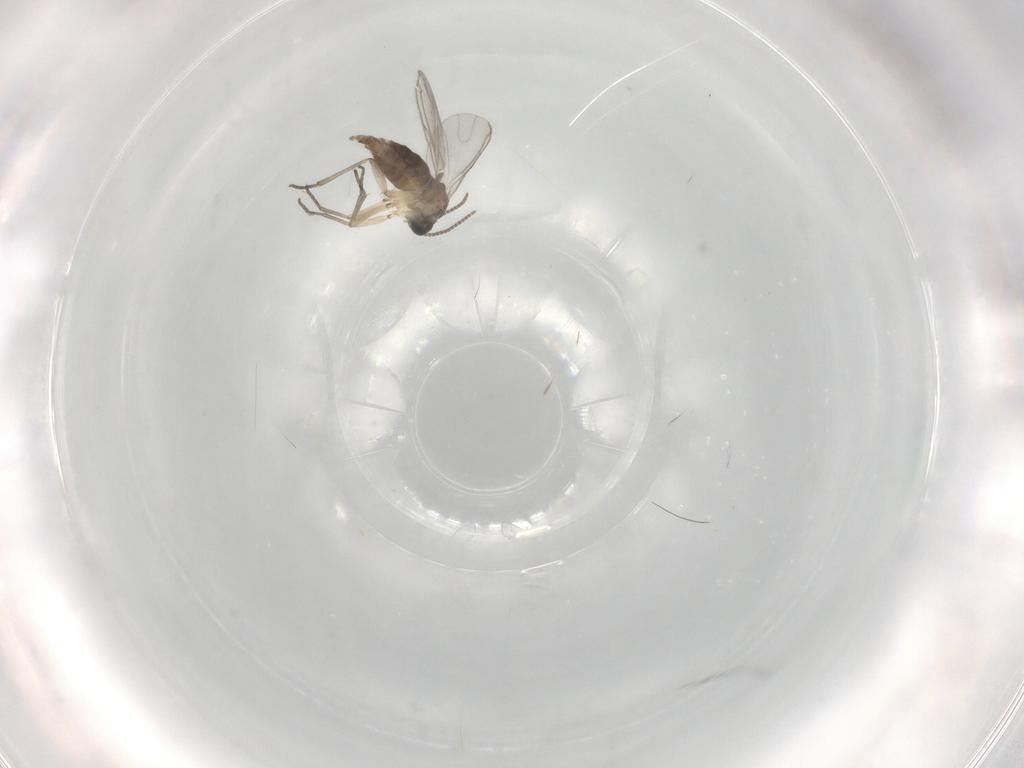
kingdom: Animalia
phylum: Arthropoda
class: Insecta
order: Diptera
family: Sciaridae
